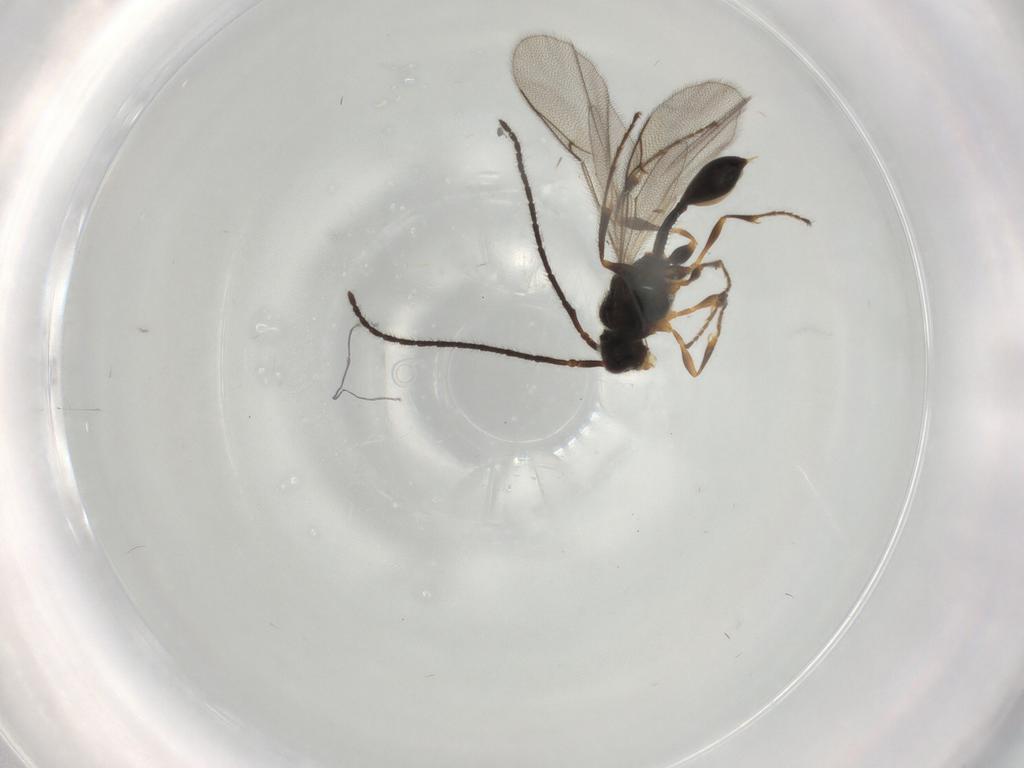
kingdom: Animalia
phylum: Arthropoda
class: Insecta
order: Hymenoptera
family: Diapriidae
